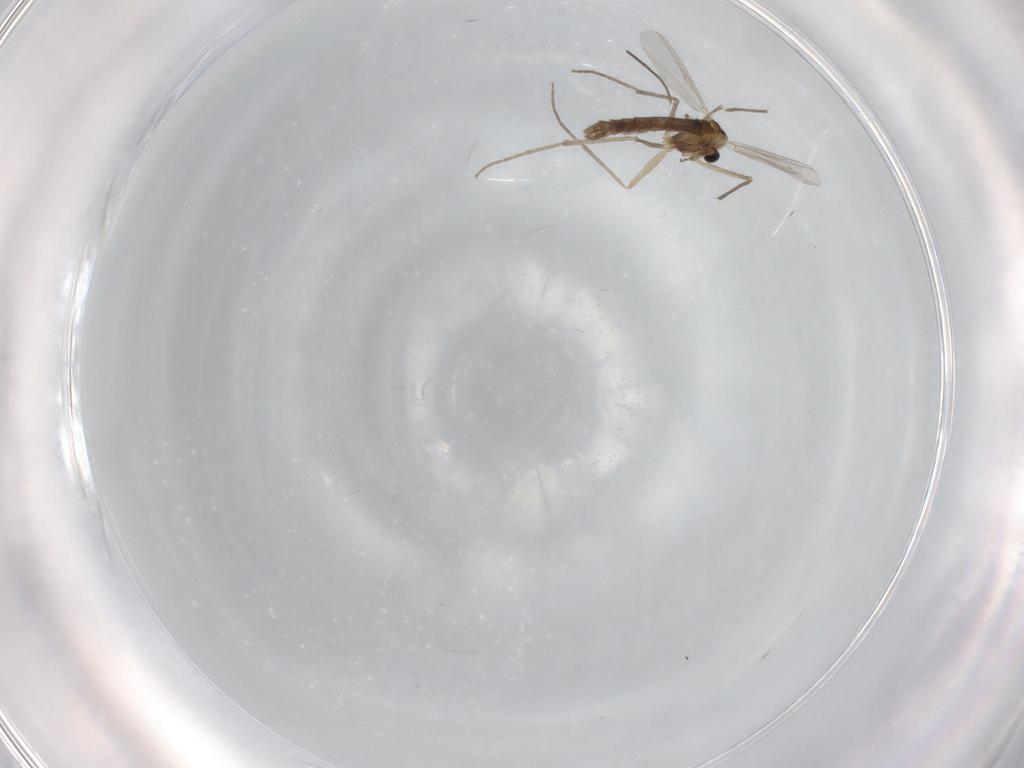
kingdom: Animalia
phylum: Arthropoda
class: Insecta
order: Diptera
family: Chironomidae
